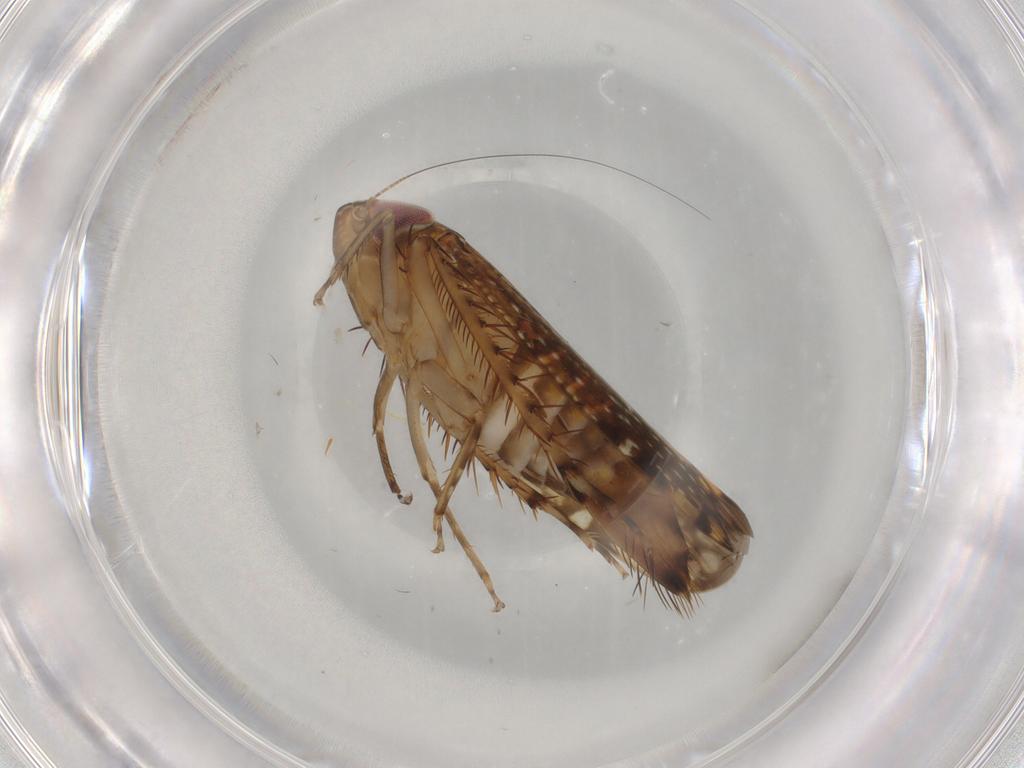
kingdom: Animalia
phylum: Arthropoda
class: Insecta
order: Hemiptera
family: Cicadellidae
